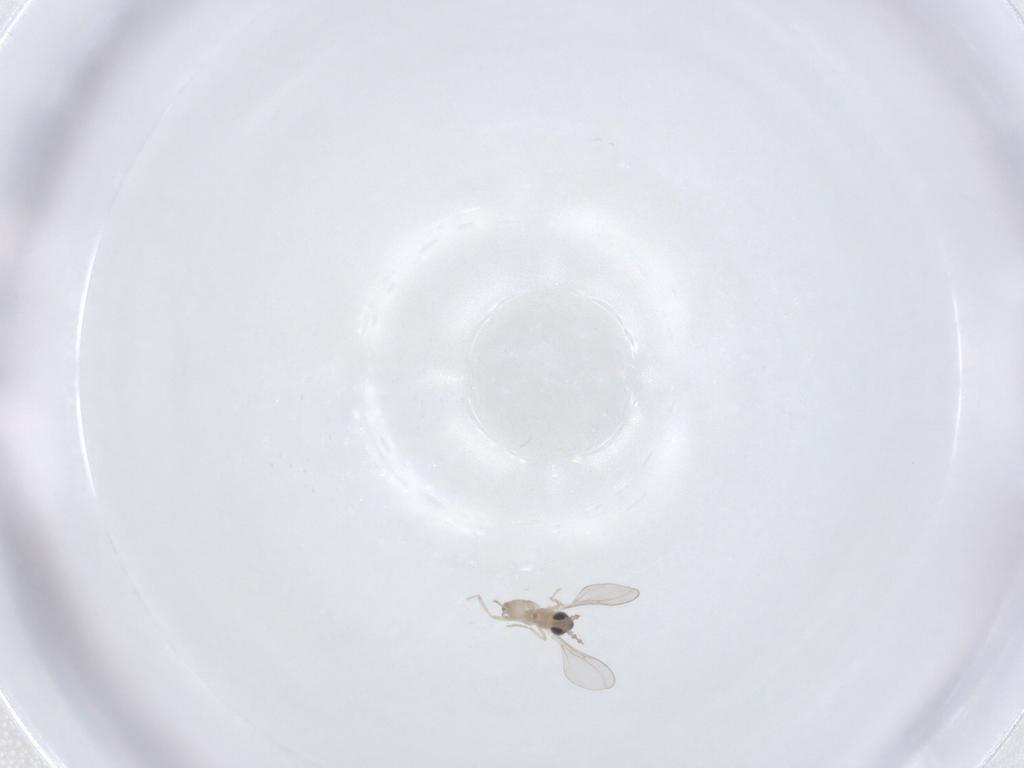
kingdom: Animalia
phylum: Arthropoda
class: Insecta
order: Diptera
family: Cecidomyiidae
